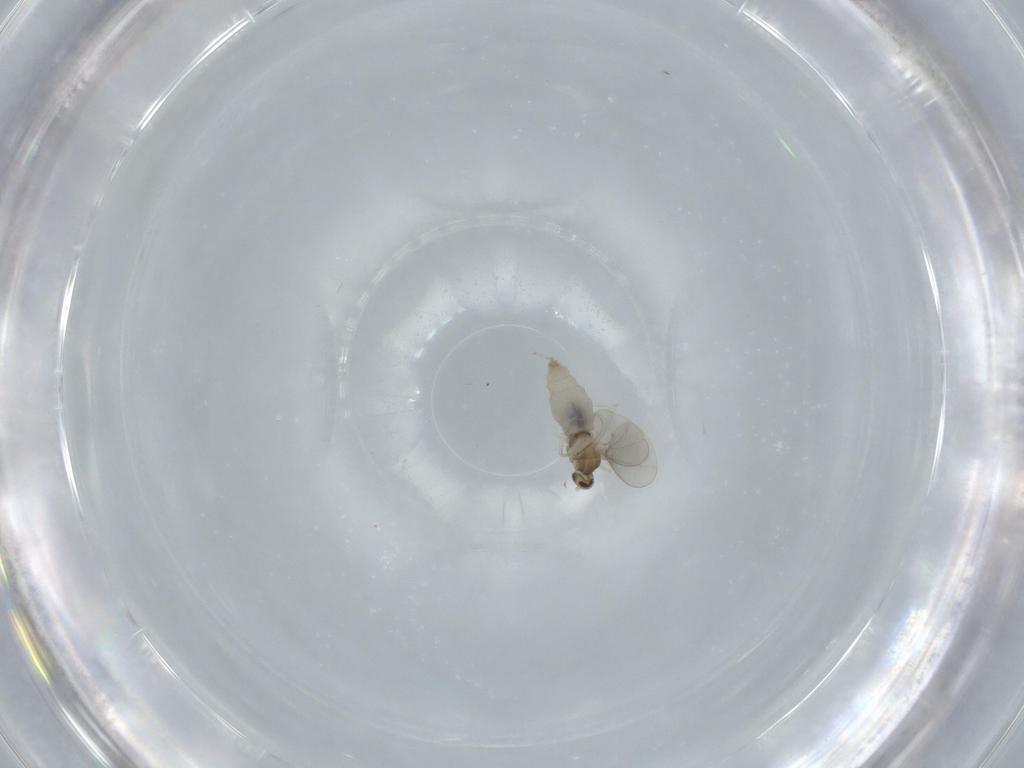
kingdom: Animalia
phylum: Arthropoda
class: Insecta
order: Diptera
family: Cecidomyiidae
